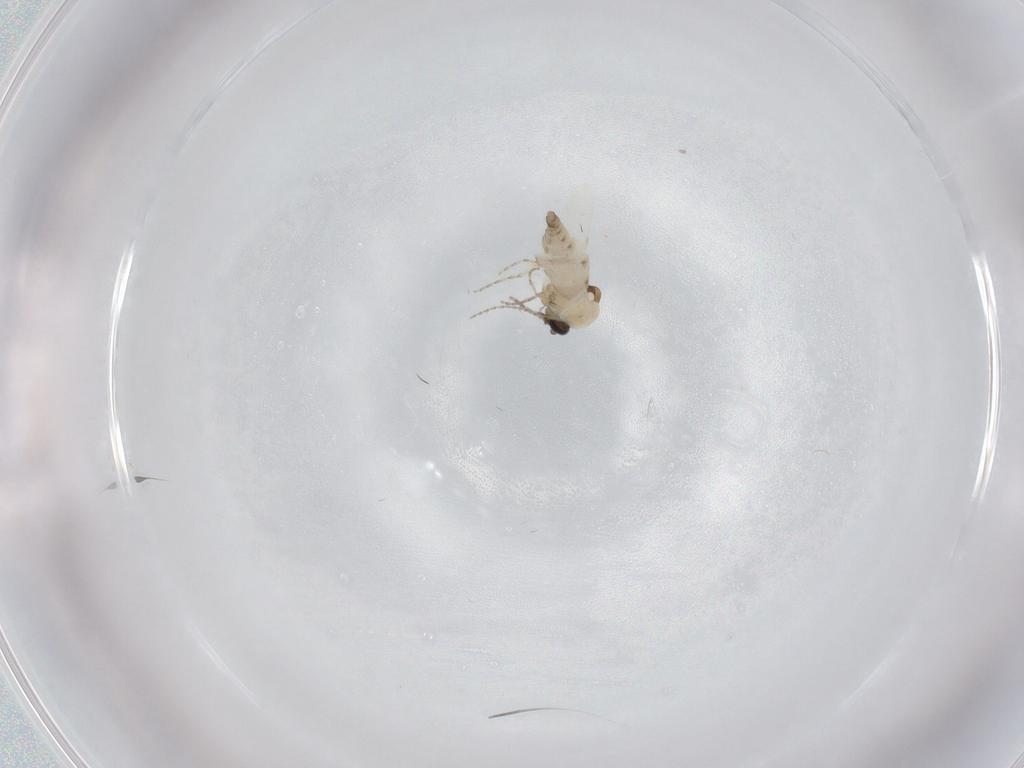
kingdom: Animalia
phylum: Arthropoda
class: Insecta
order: Diptera
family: Ceratopogonidae
